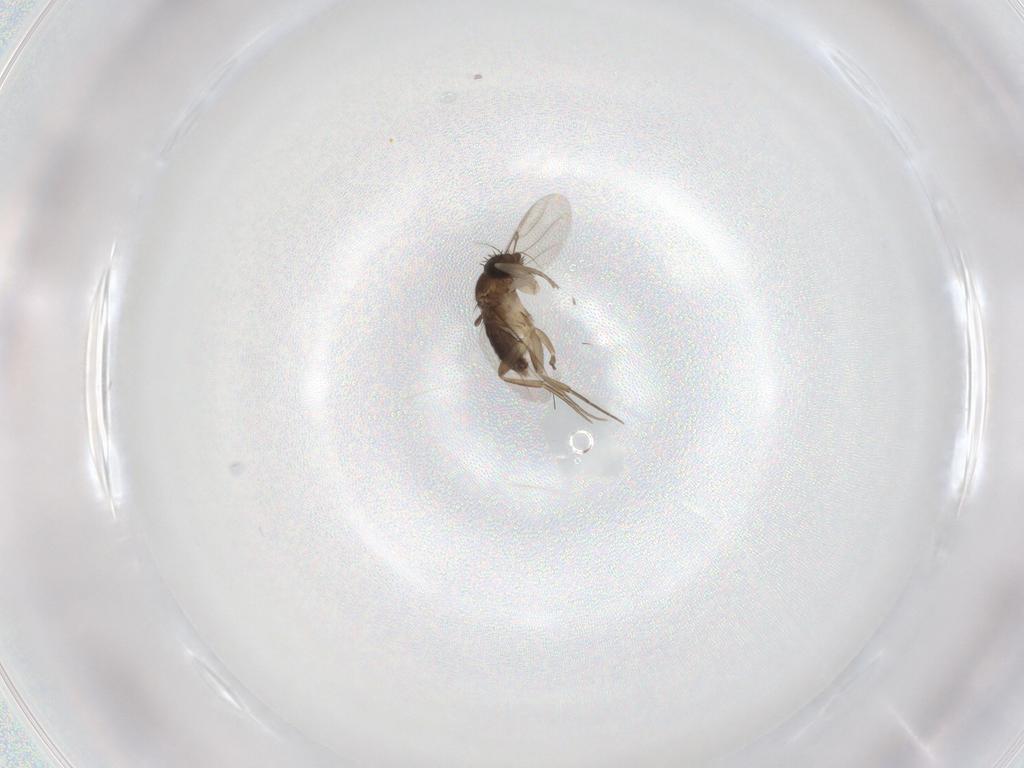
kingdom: Animalia
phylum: Arthropoda
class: Insecta
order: Diptera
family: Phoridae
